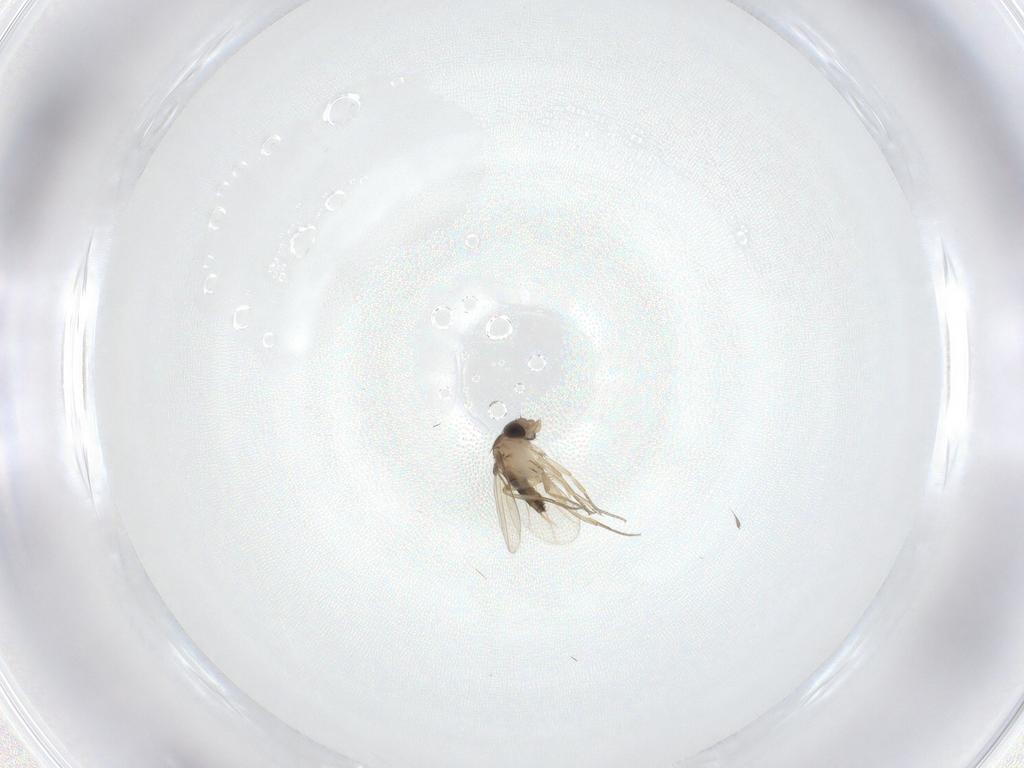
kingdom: Animalia
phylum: Arthropoda
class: Insecta
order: Diptera
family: Phoridae
